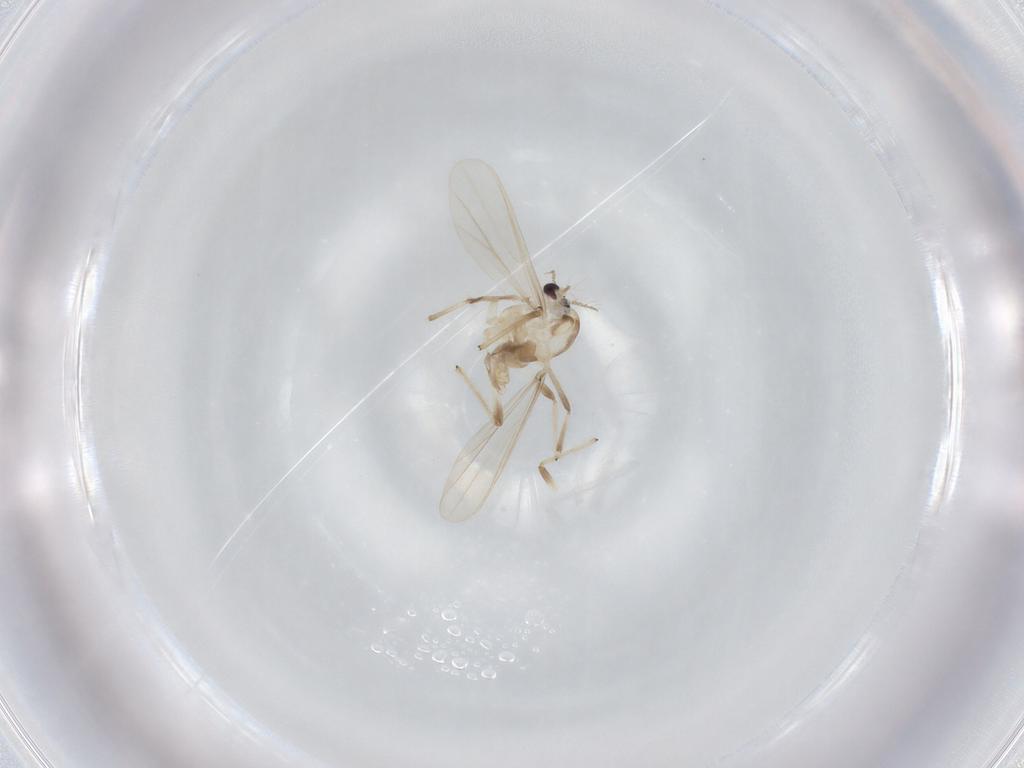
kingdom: Animalia
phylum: Arthropoda
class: Insecta
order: Diptera
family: Chironomidae
